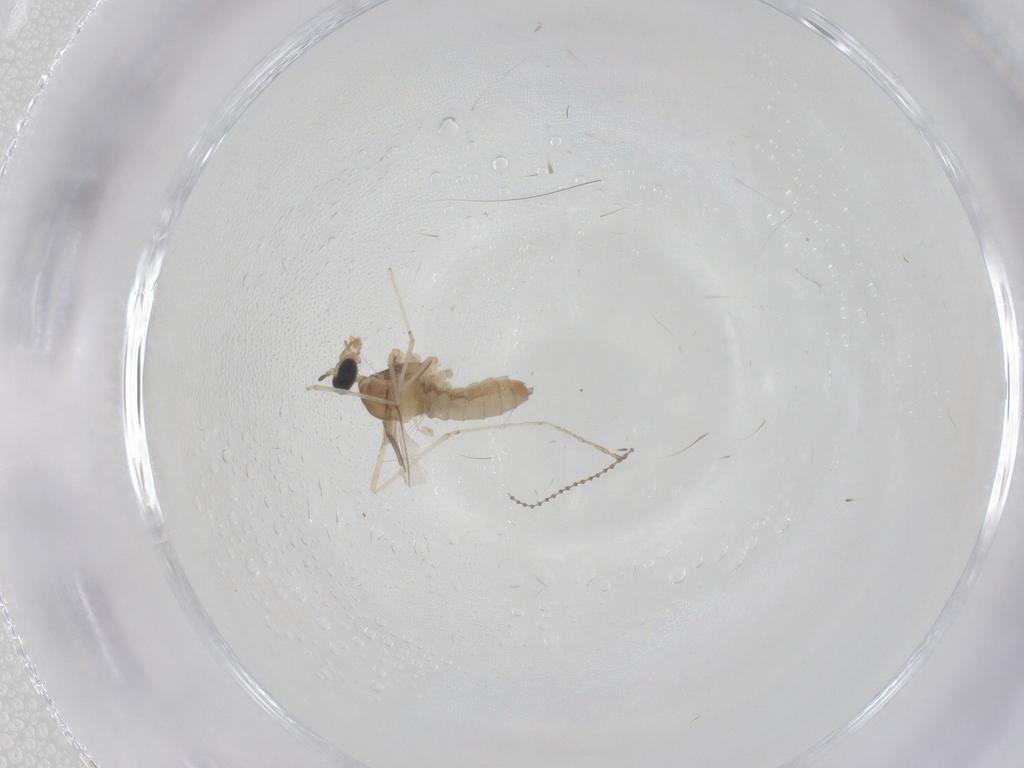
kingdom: Animalia
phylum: Arthropoda
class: Insecta
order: Diptera
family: Cecidomyiidae
